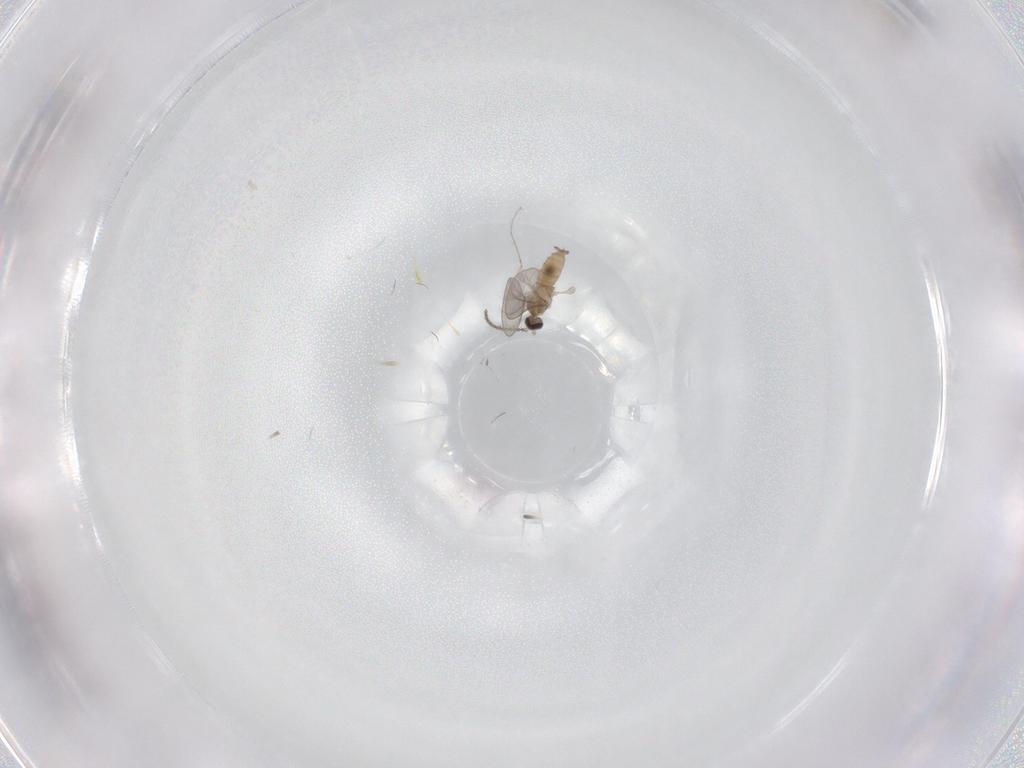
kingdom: Animalia
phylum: Arthropoda
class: Insecta
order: Diptera
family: Cecidomyiidae
